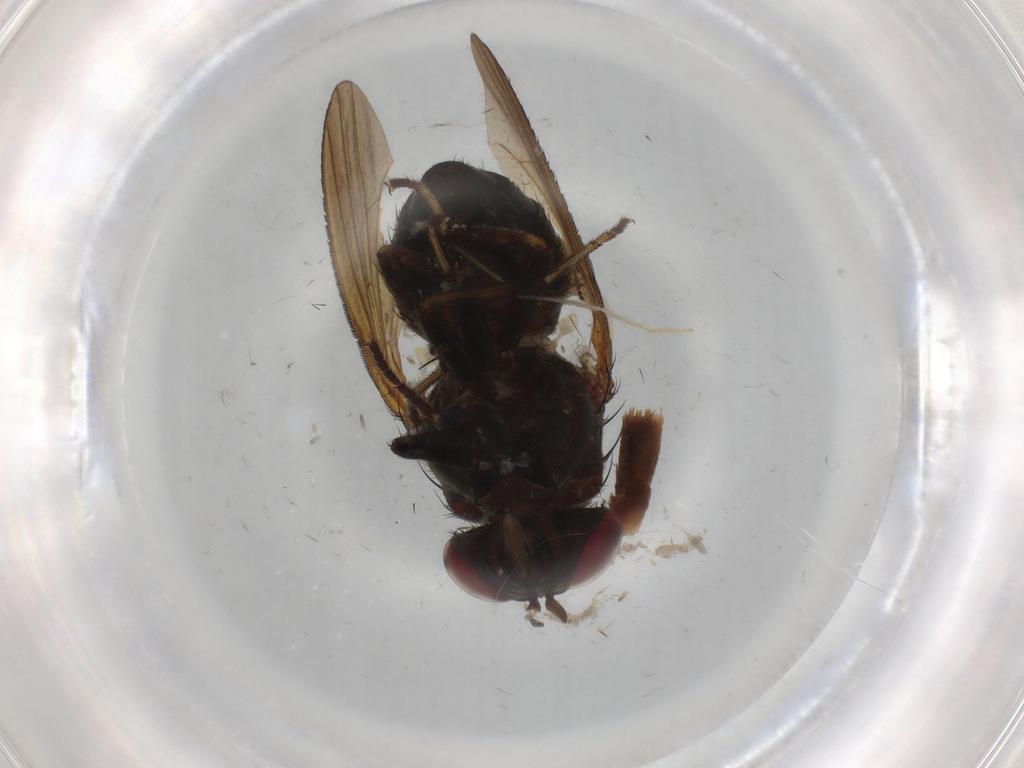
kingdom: Animalia
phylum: Arthropoda
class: Insecta
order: Diptera
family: Lauxaniidae
